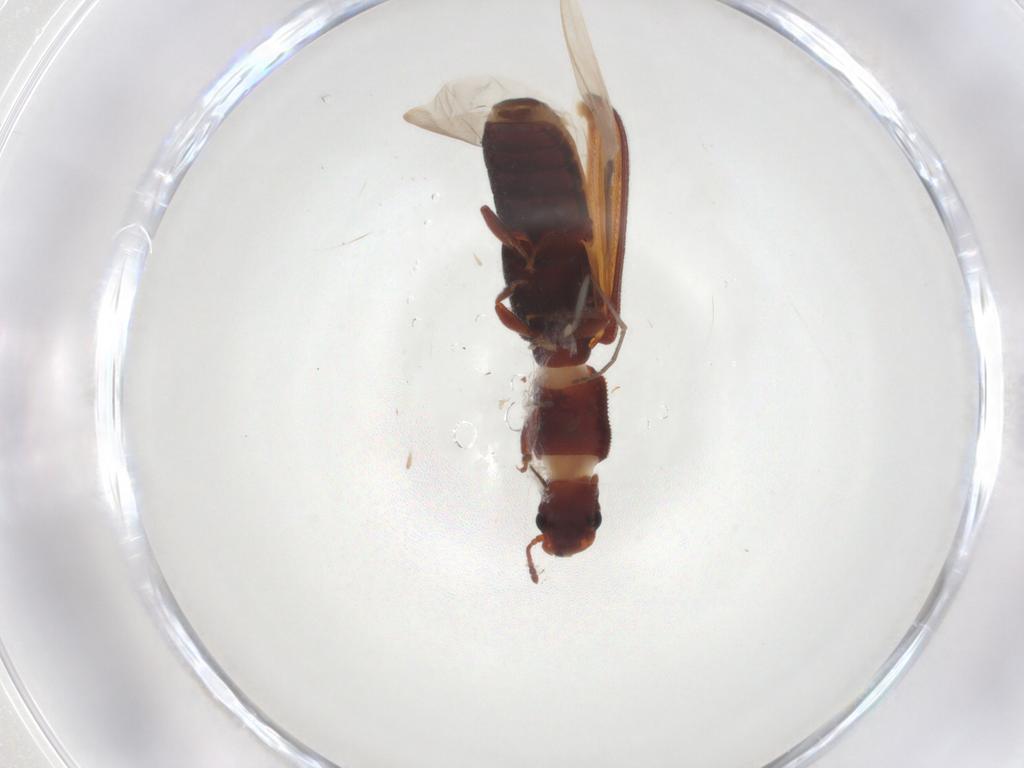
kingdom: Animalia
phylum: Arthropoda
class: Insecta
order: Coleoptera
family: Zopheridae
